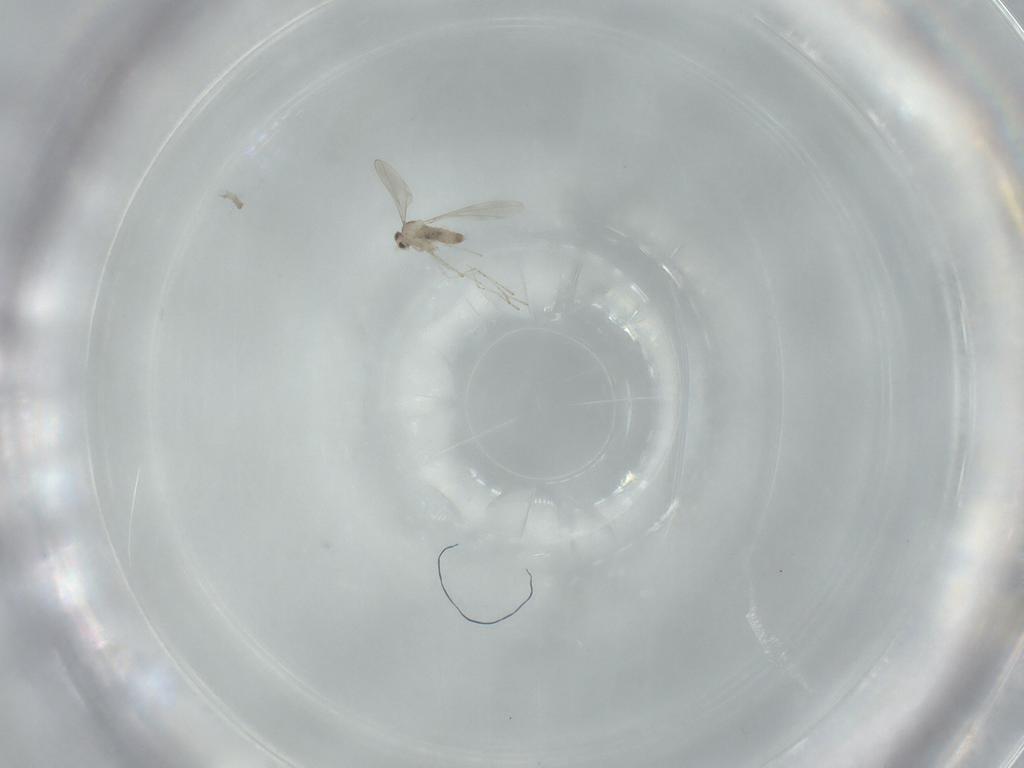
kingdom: Animalia
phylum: Arthropoda
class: Insecta
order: Diptera
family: Cecidomyiidae
